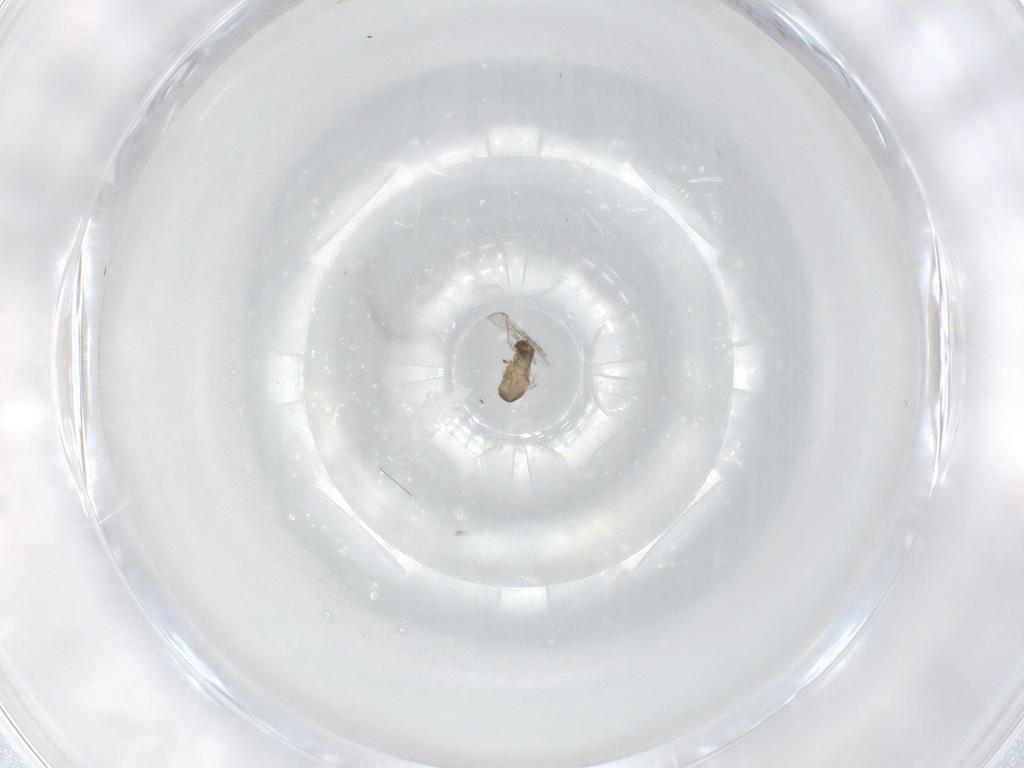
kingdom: Animalia
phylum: Arthropoda
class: Insecta
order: Diptera
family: Cecidomyiidae
